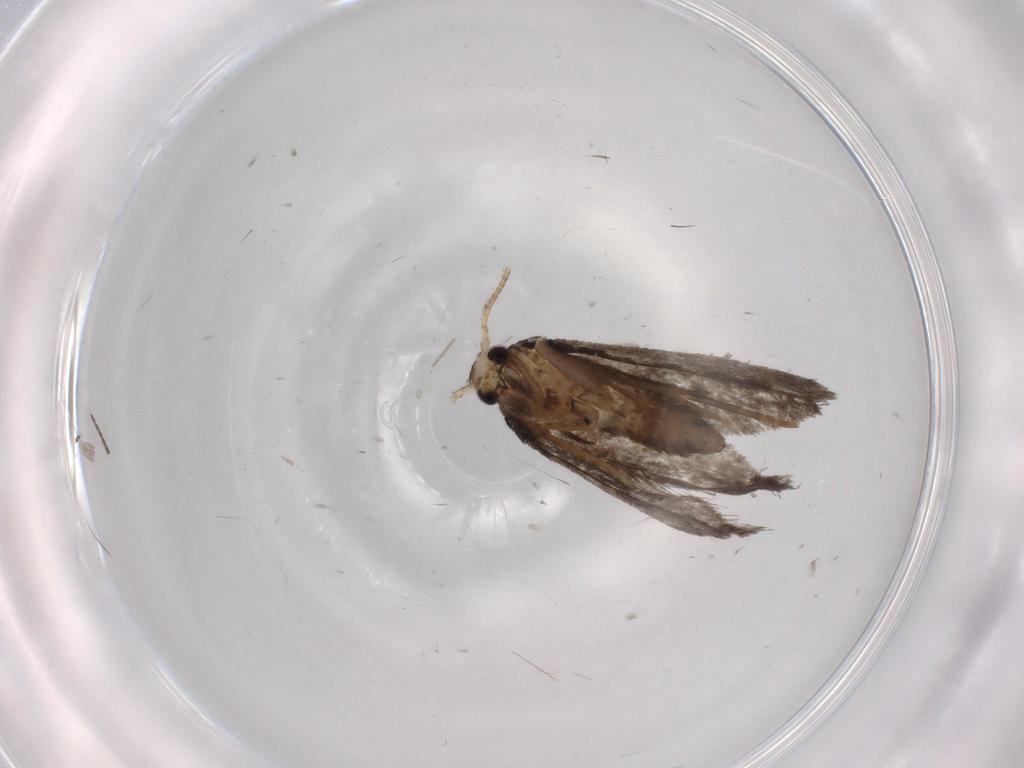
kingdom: Animalia
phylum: Arthropoda
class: Insecta
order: Lepidoptera
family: Psychidae
